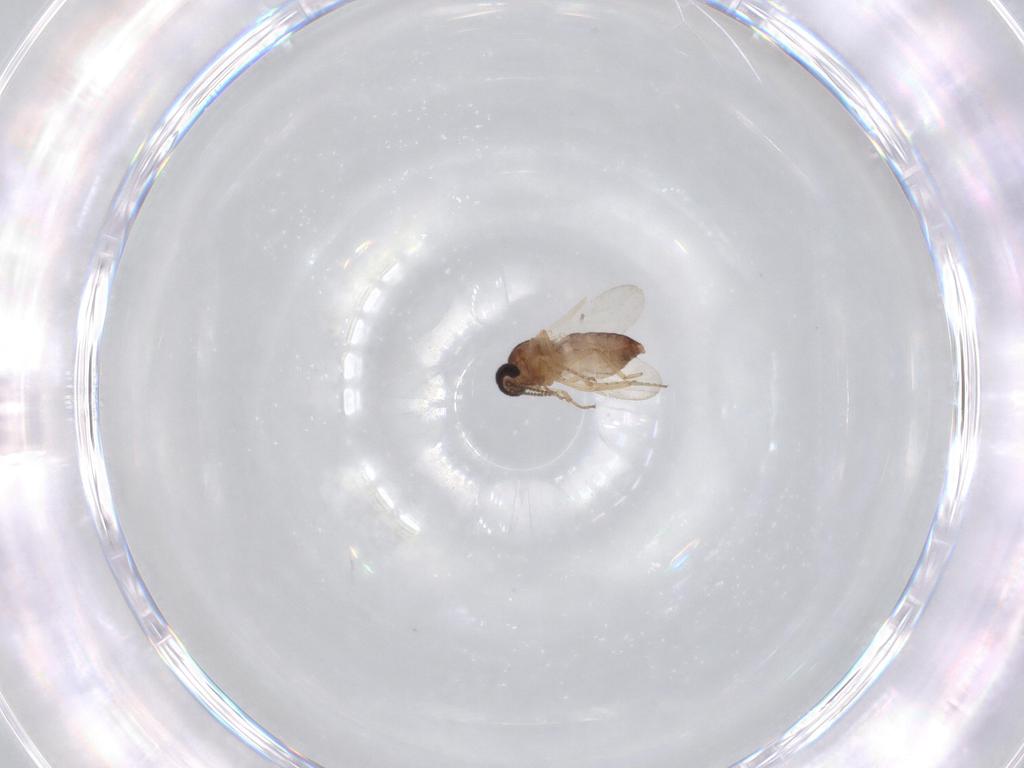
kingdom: Animalia
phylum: Arthropoda
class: Insecta
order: Diptera
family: Ceratopogonidae
